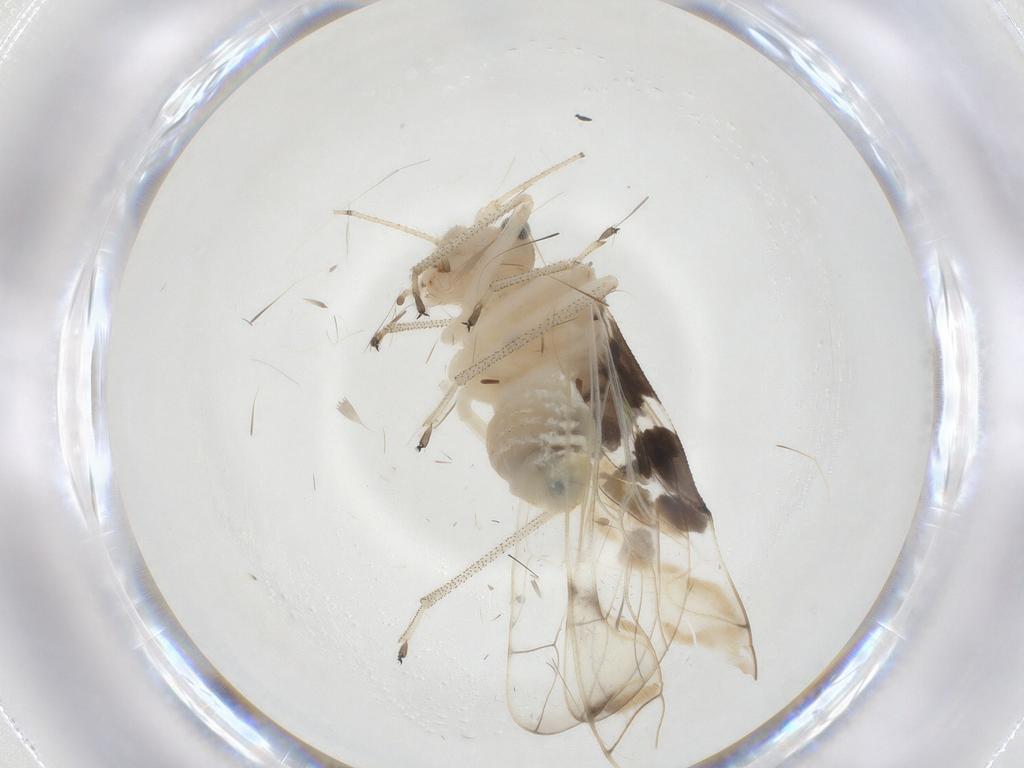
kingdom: Animalia
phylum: Arthropoda
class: Insecta
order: Psocodea
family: Amphipsocidae
